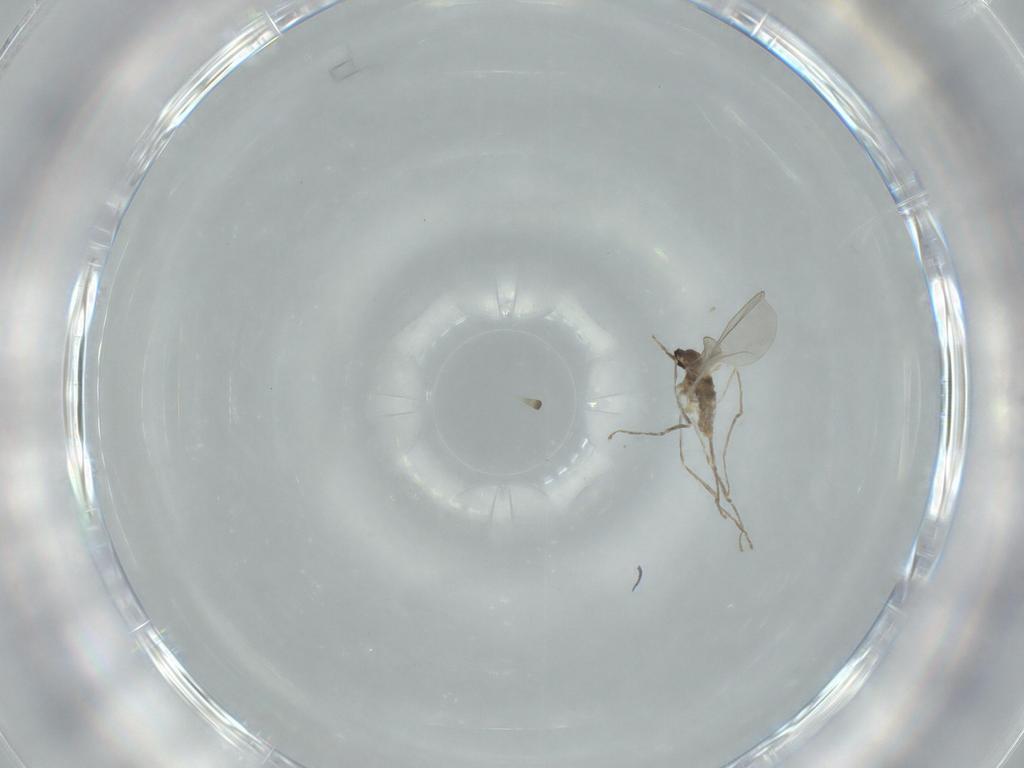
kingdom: Animalia
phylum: Arthropoda
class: Insecta
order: Diptera
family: Cecidomyiidae
